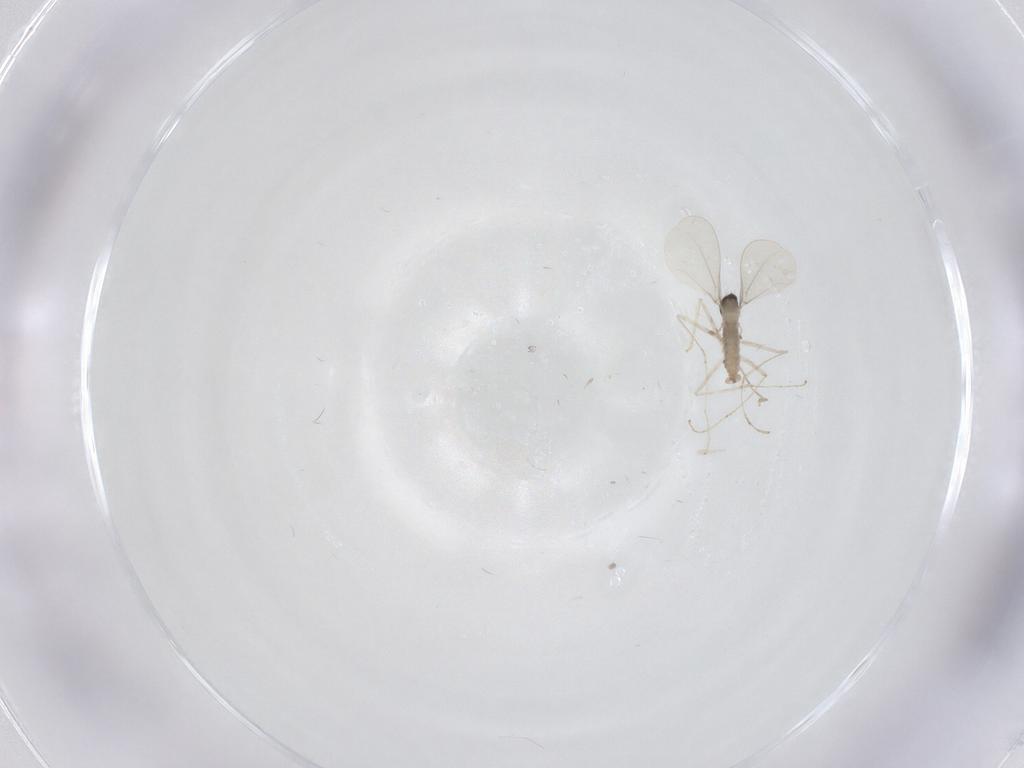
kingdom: Animalia
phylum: Arthropoda
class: Insecta
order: Diptera
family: Cecidomyiidae
